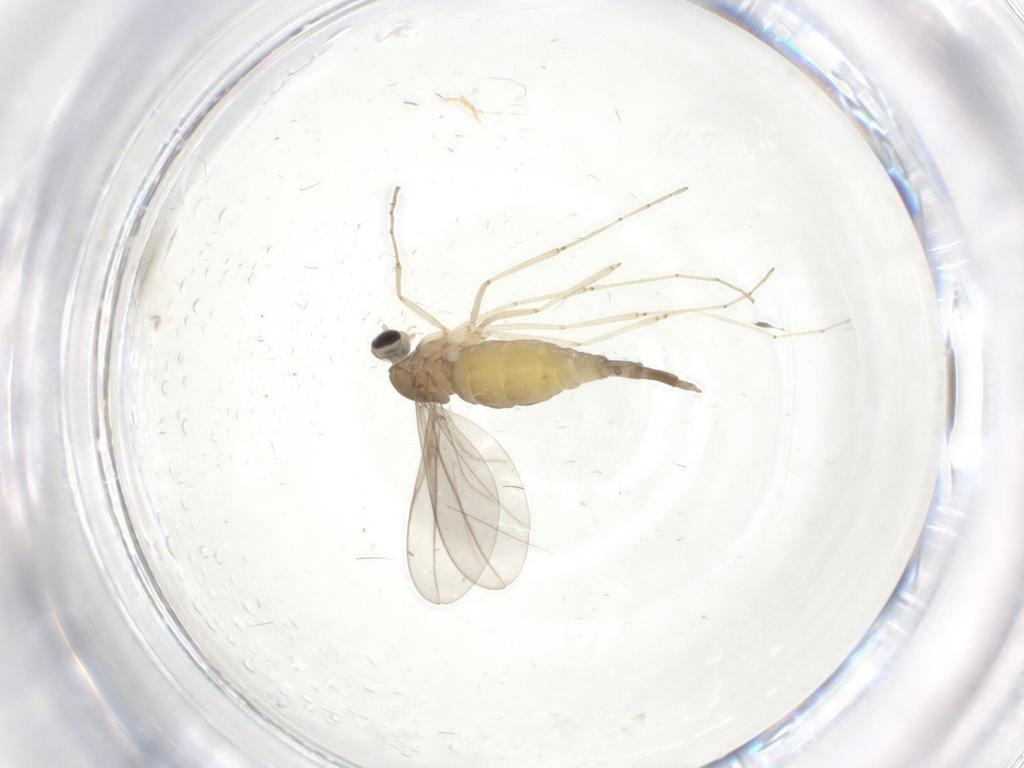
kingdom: Animalia
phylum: Arthropoda
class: Insecta
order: Diptera
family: Cecidomyiidae
